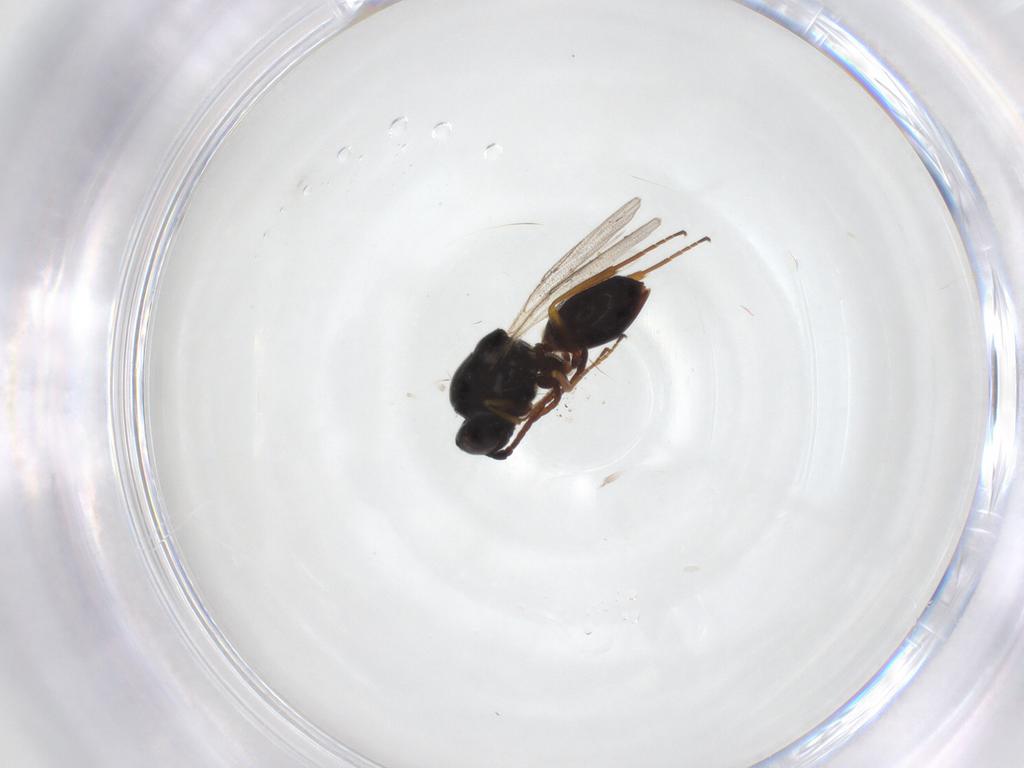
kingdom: Animalia
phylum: Arthropoda
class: Insecta
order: Hymenoptera
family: Figitidae
